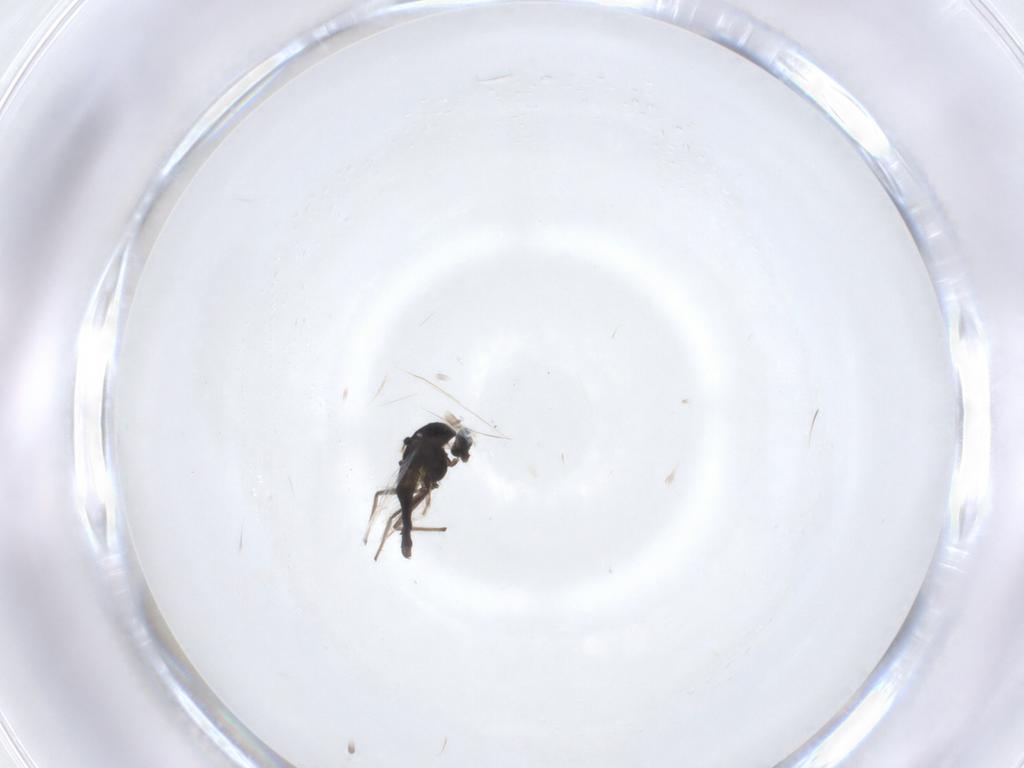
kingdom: Animalia
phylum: Arthropoda
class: Insecta
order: Diptera
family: Chironomidae
